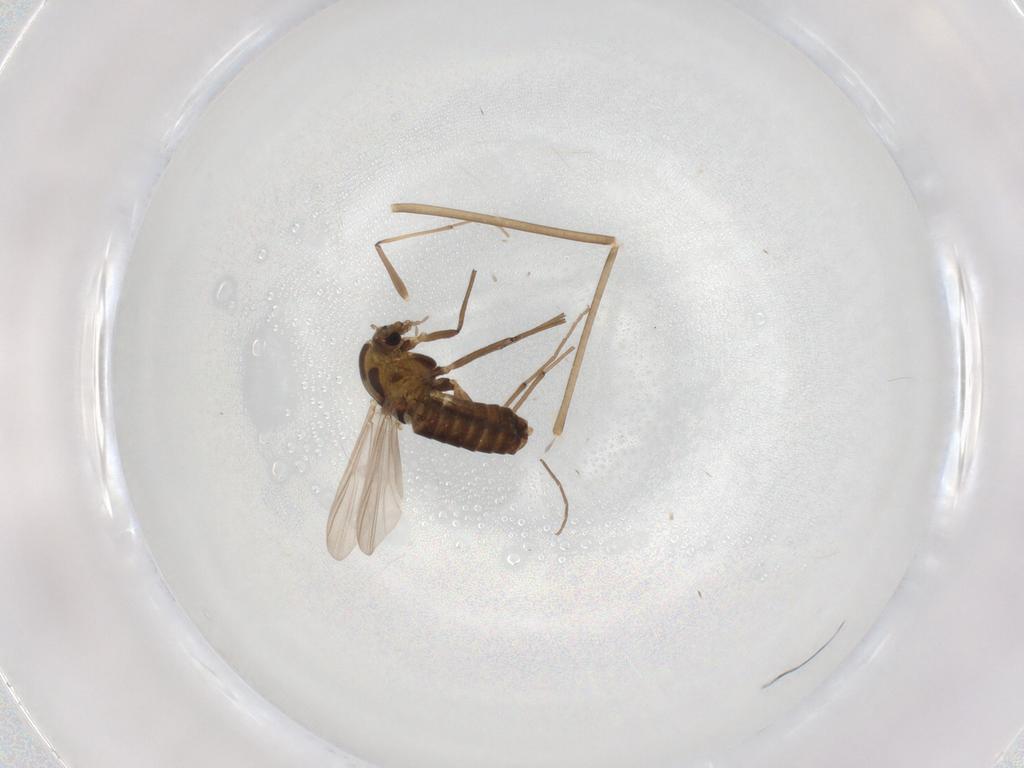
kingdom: Animalia
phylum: Arthropoda
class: Insecta
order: Diptera
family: Chironomidae
